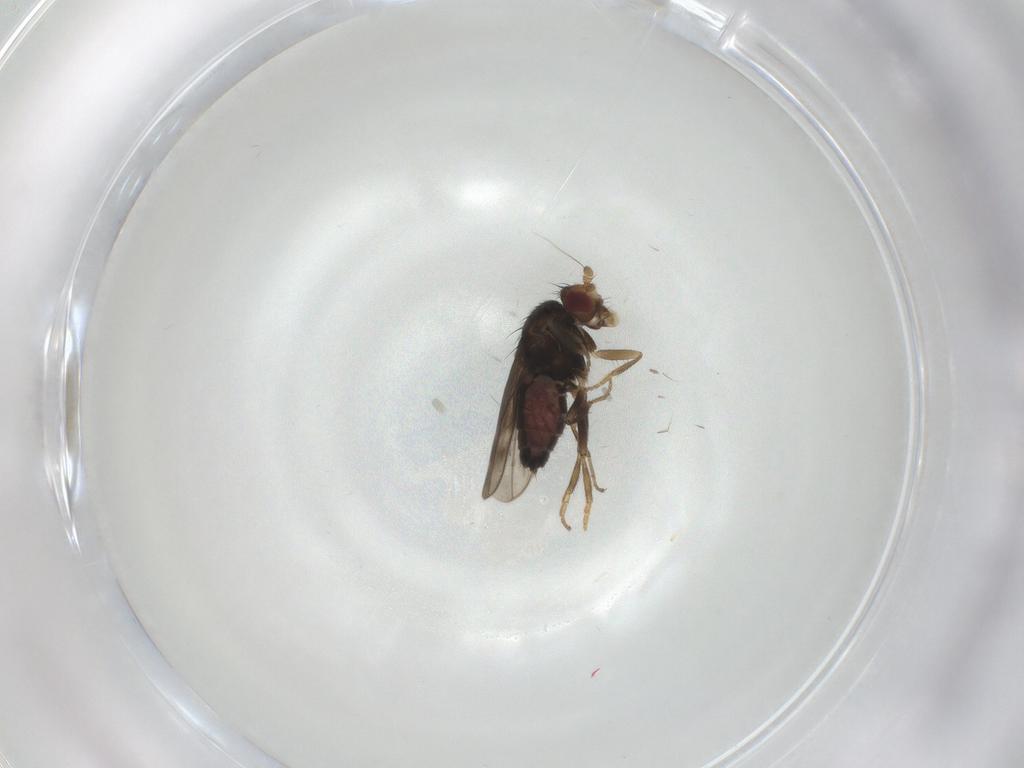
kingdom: Animalia
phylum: Arthropoda
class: Insecta
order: Diptera
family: Sphaeroceridae
